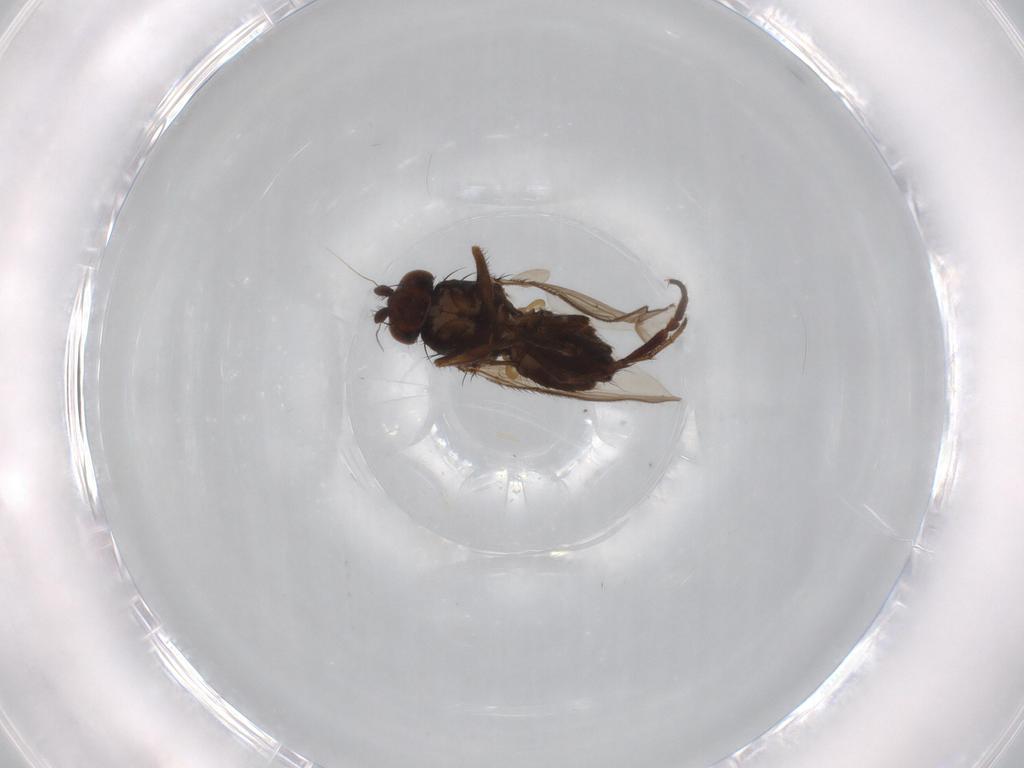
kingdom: Animalia
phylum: Arthropoda
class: Insecta
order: Diptera
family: Sphaeroceridae
